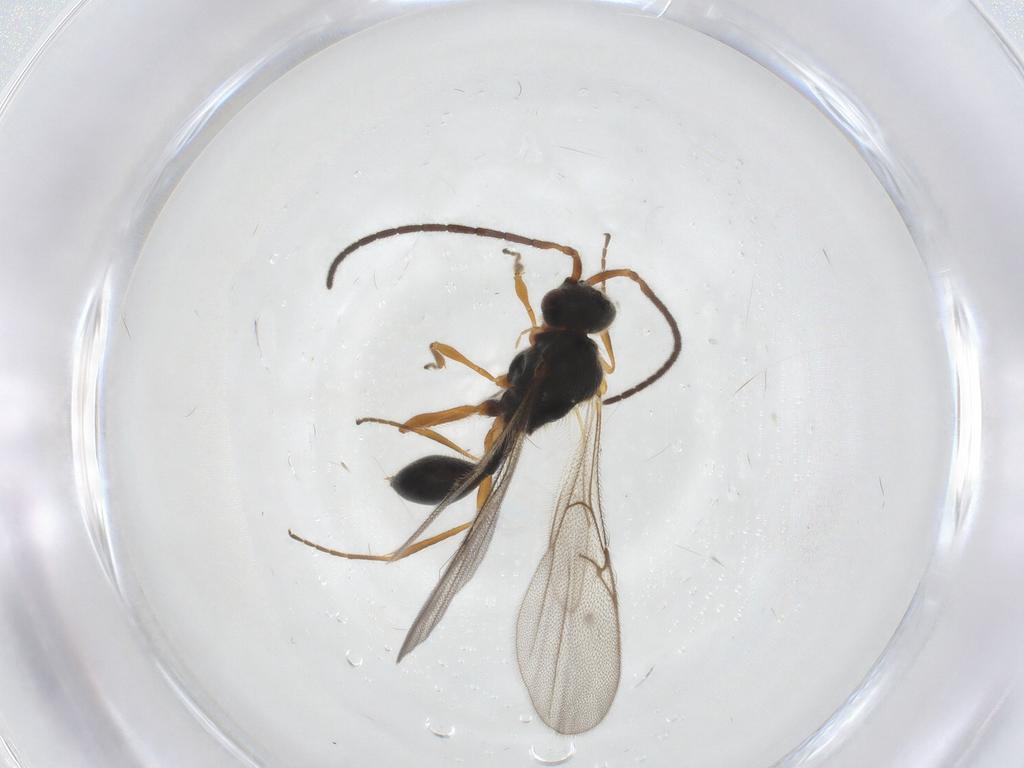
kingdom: Animalia
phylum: Arthropoda
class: Insecta
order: Hymenoptera
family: Diapriidae
